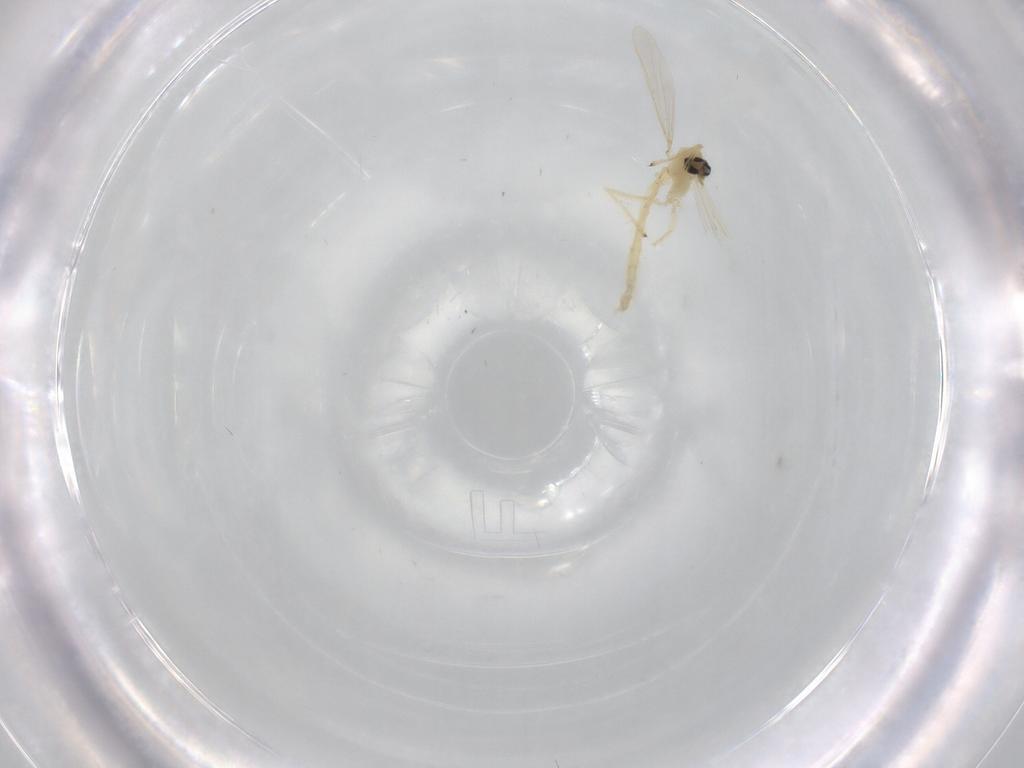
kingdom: Animalia
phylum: Arthropoda
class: Insecta
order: Diptera
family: Chironomidae
